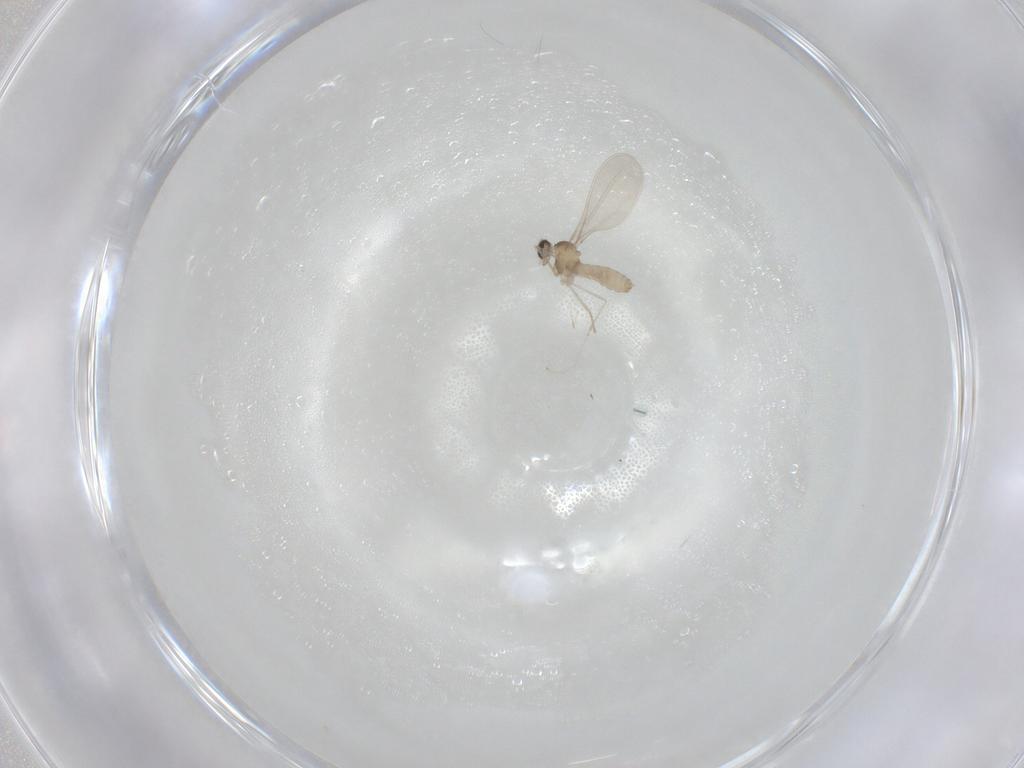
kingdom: Animalia
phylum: Arthropoda
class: Insecta
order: Diptera
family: Cecidomyiidae
